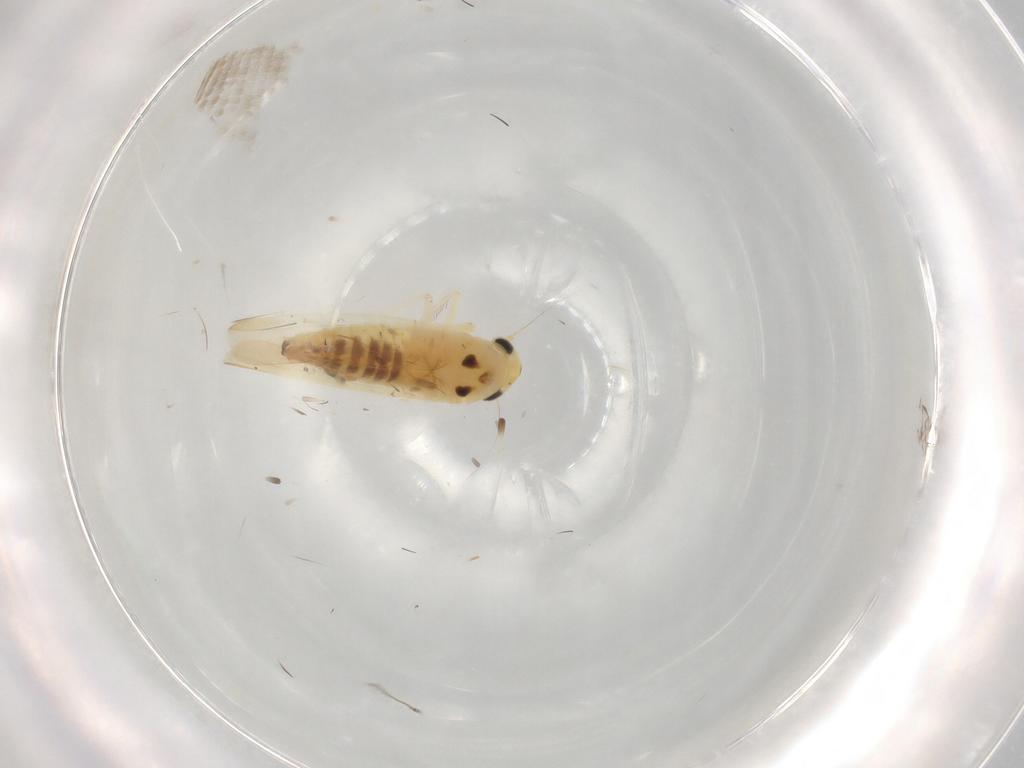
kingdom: Animalia
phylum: Arthropoda
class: Insecta
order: Hemiptera
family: Cicadellidae
